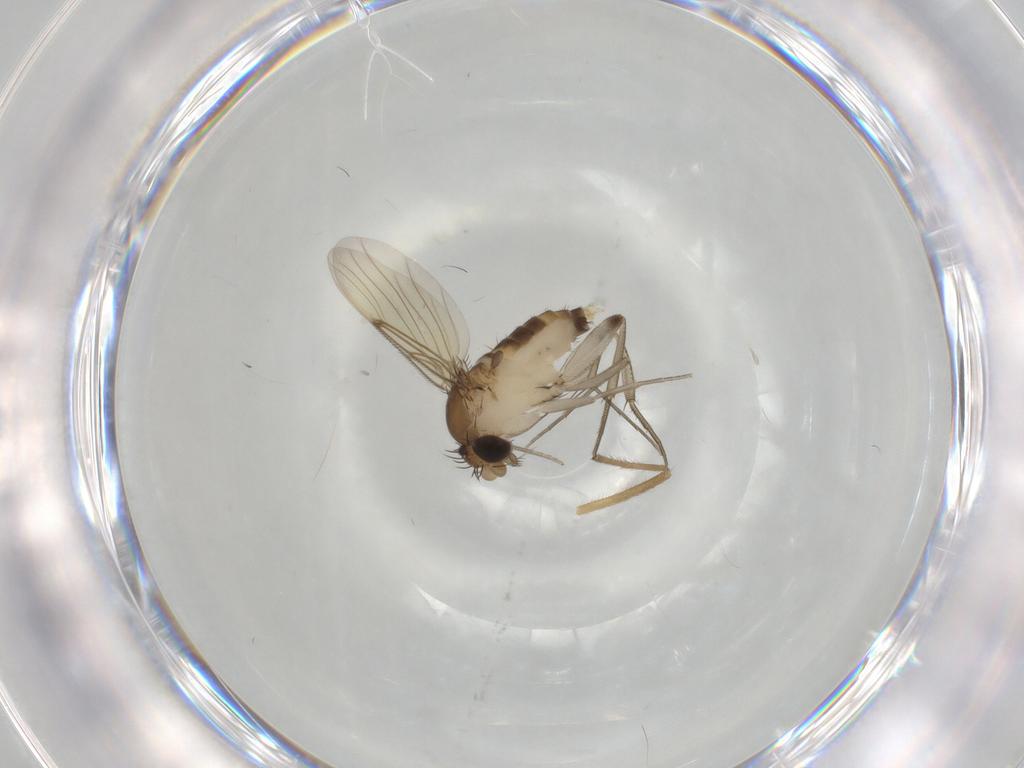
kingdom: Animalia
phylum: Arthropoda
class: Insecta
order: Diptera
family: Phoridae
